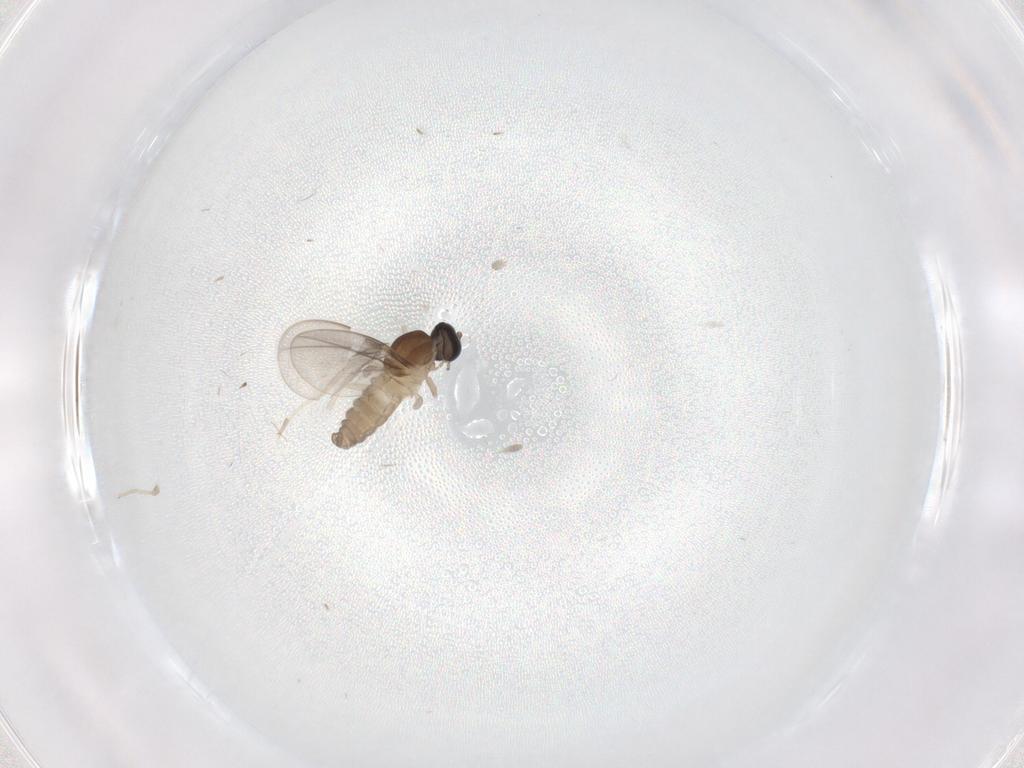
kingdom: Animalia
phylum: Arthropoda
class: Insecta
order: Diptera
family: Cecidomyiidae
